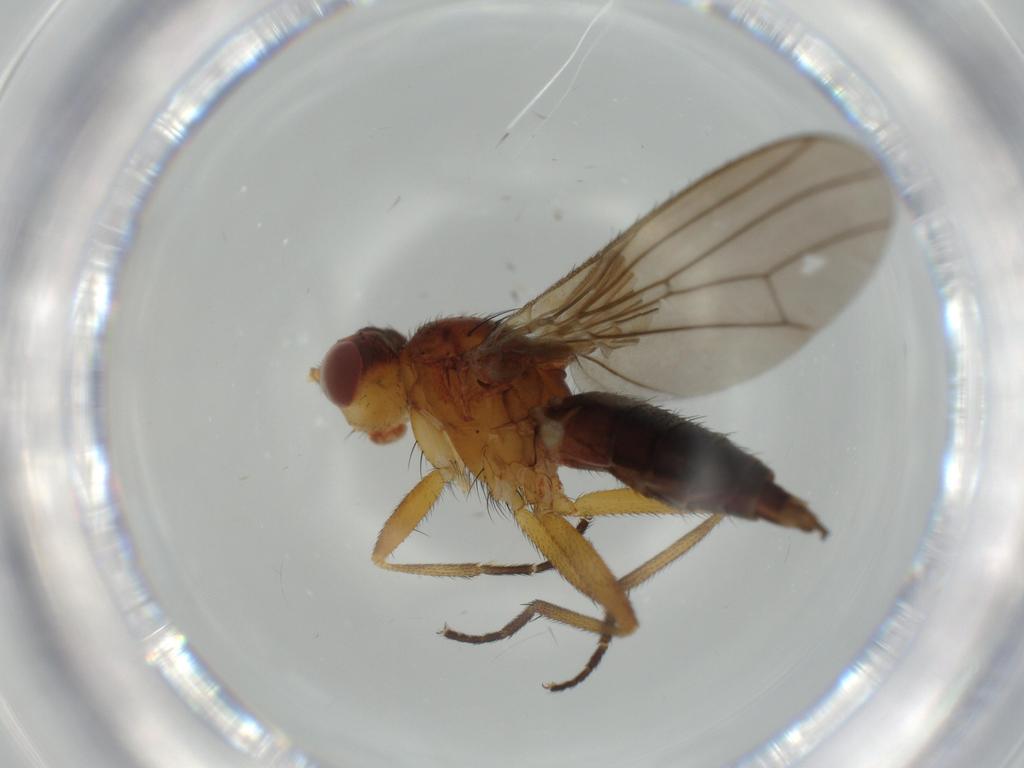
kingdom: Animalia
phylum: Arthropoda
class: Insecta
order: Diptera
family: Heleomyzidae
